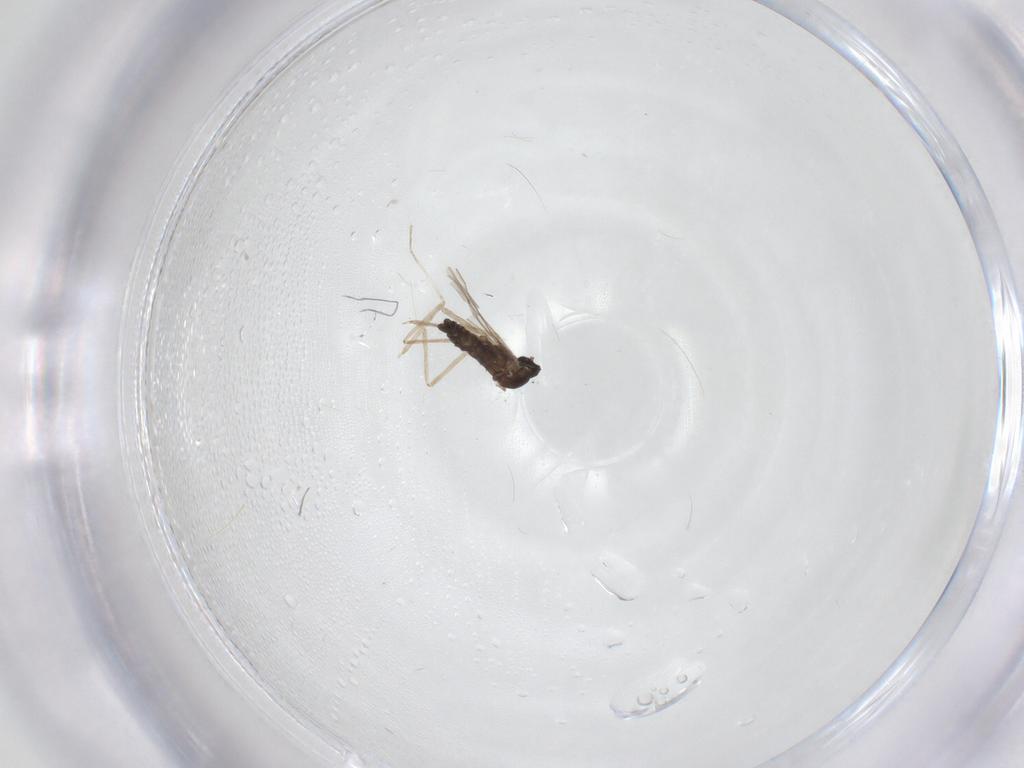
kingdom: Animalia
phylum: Arthropoda
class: Insecta
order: Diptera
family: Cecidomyiidae
